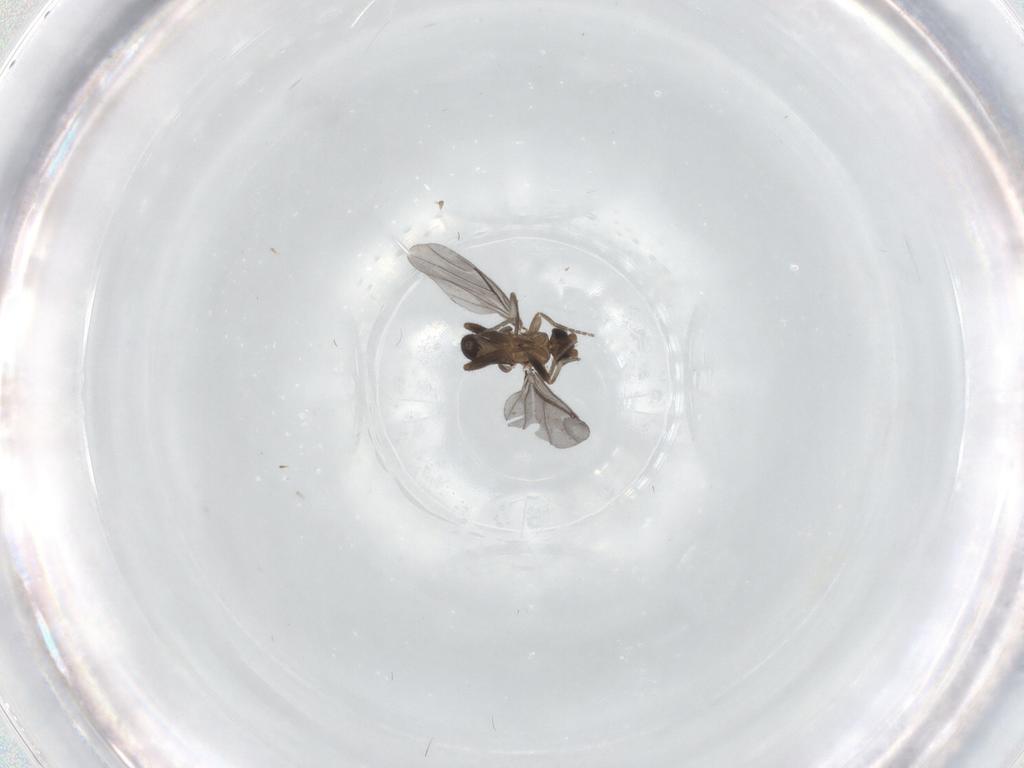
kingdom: Animalia
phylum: Arthropoda
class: Insecta
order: Diptera
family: Phoridae
